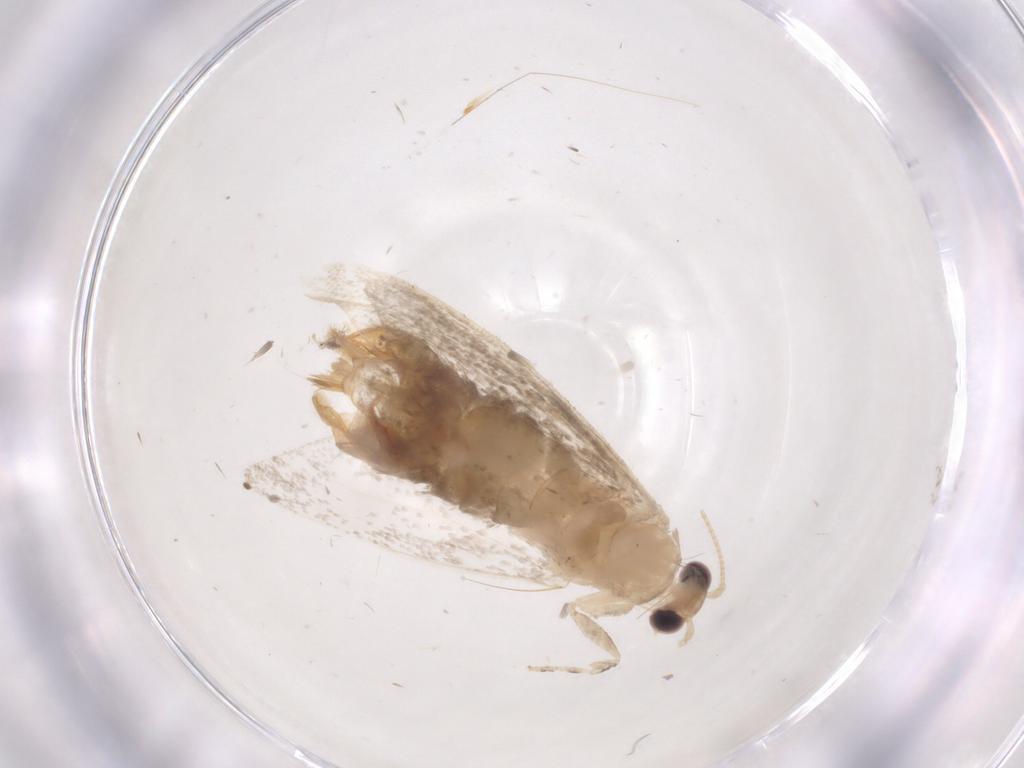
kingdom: Animalia
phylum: Arthropoda
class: Insecta
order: Lepidoptera
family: Tineidae
